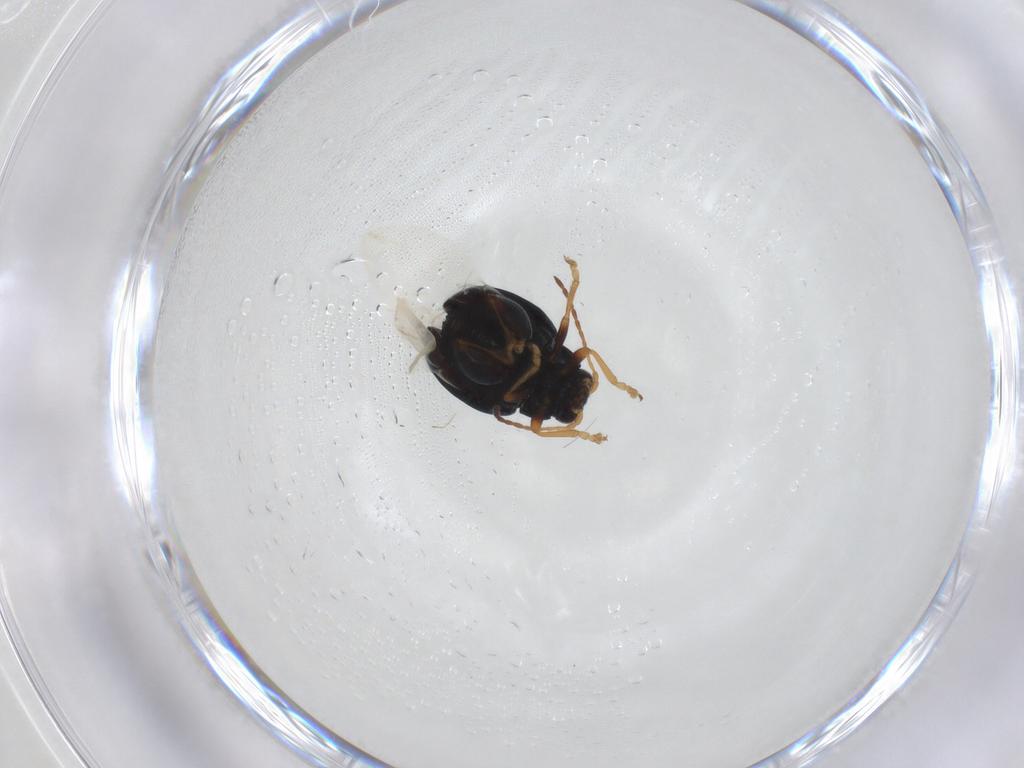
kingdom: Animalia
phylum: Arthropoda
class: Insecta
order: Coleoptera
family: Chrysomelidae
